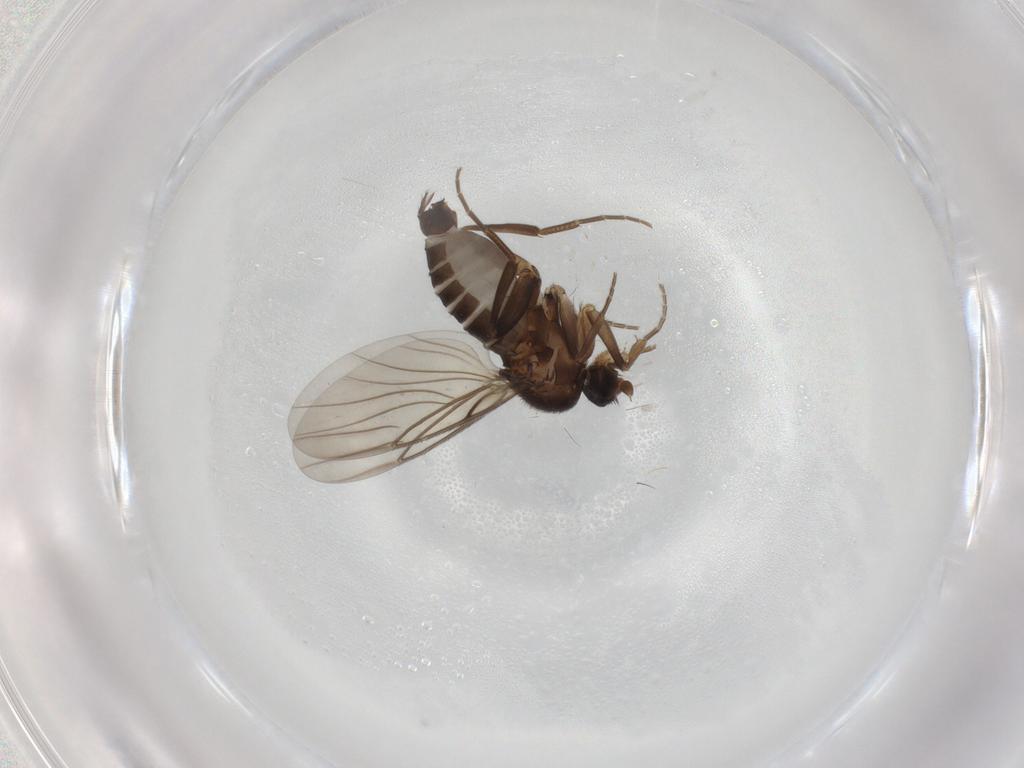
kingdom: Animalia
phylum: Arthropoda
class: Insecta
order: Diptera
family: Cecidomyiidae
